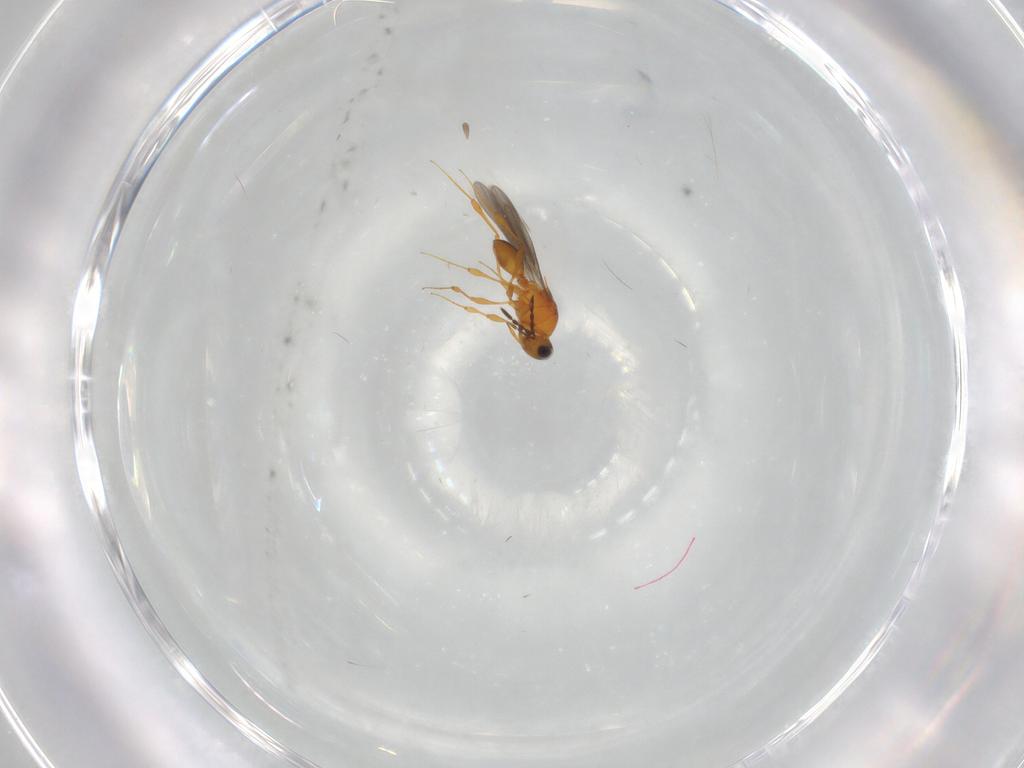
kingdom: Animalia
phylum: Arthropoda
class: Insecta
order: Hymenoptera
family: Platygastridae
